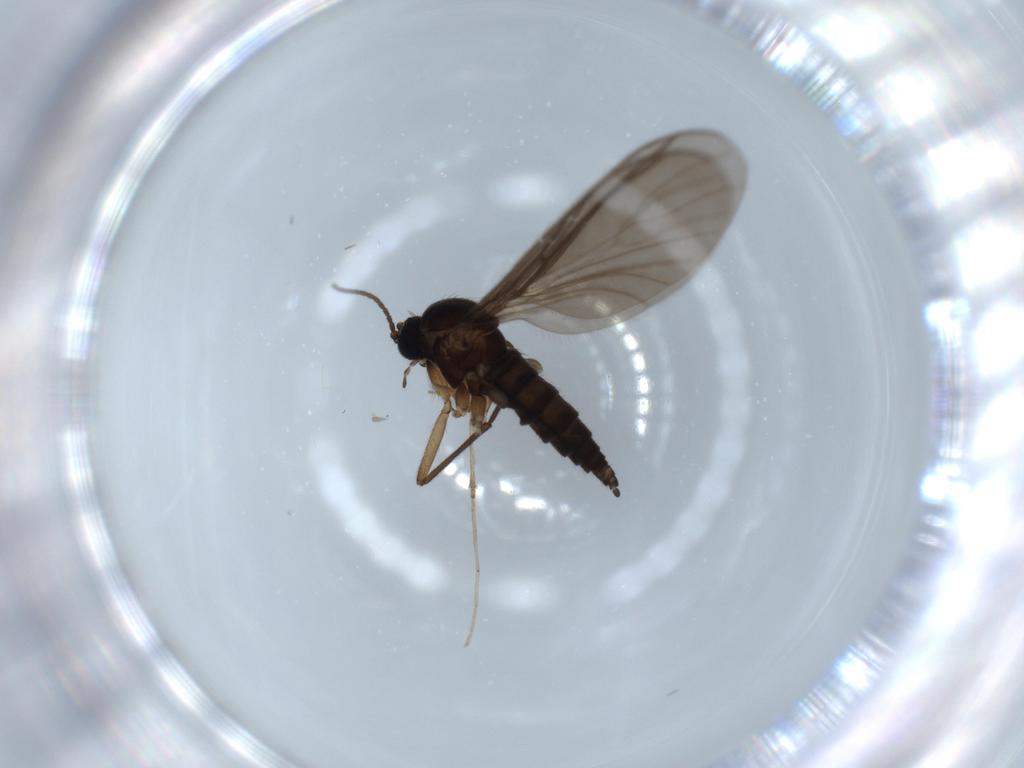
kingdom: Animalia
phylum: Arthropoda
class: Insecta
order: Diptera
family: Sciaridae
